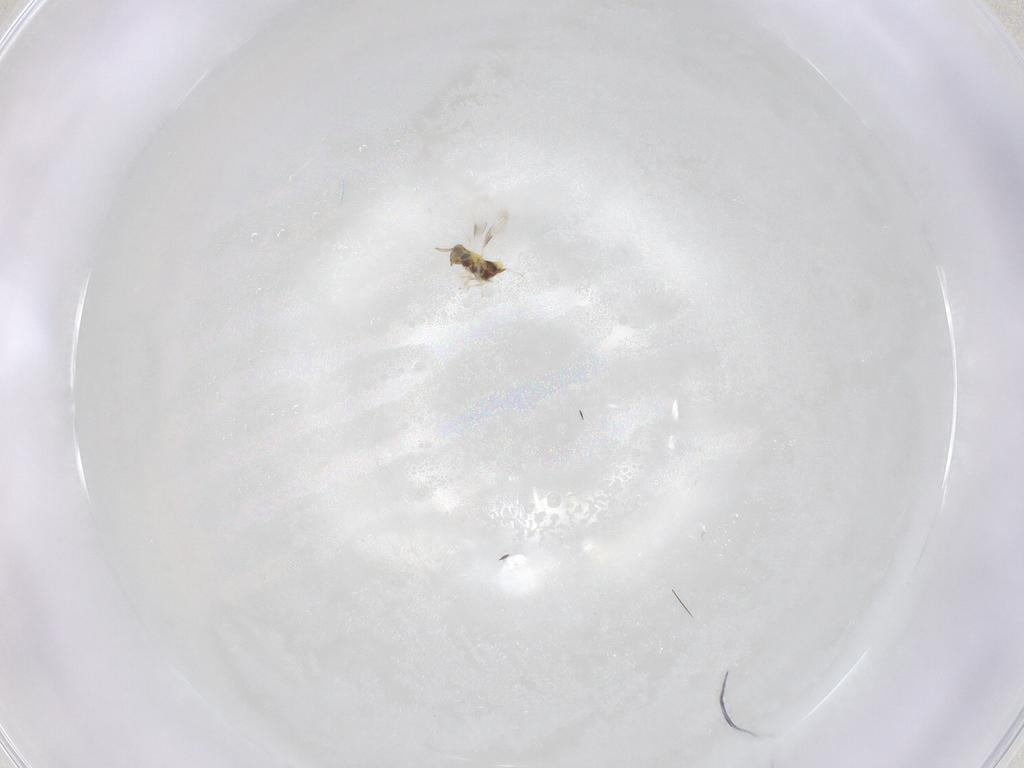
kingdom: Animalia
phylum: Arthropoda
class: Insecta
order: Hymenoptera
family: Aphelinidae
